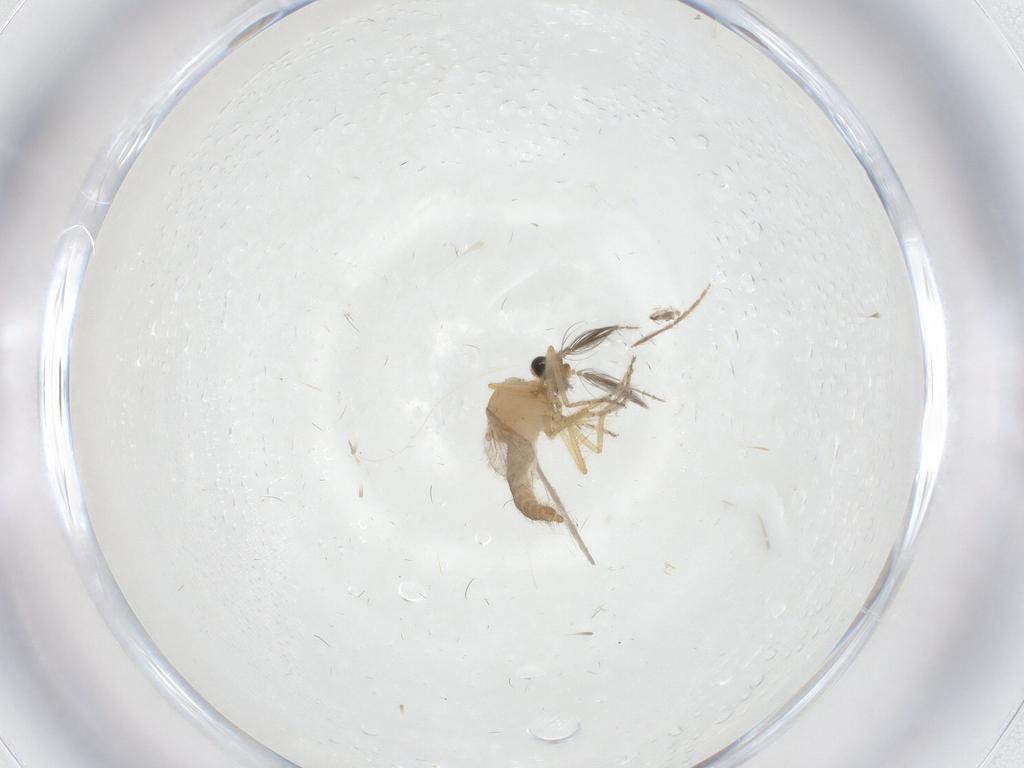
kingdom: Animalia
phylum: Arthropoda
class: Insecta
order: Diptera
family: Ceratopogonidae
